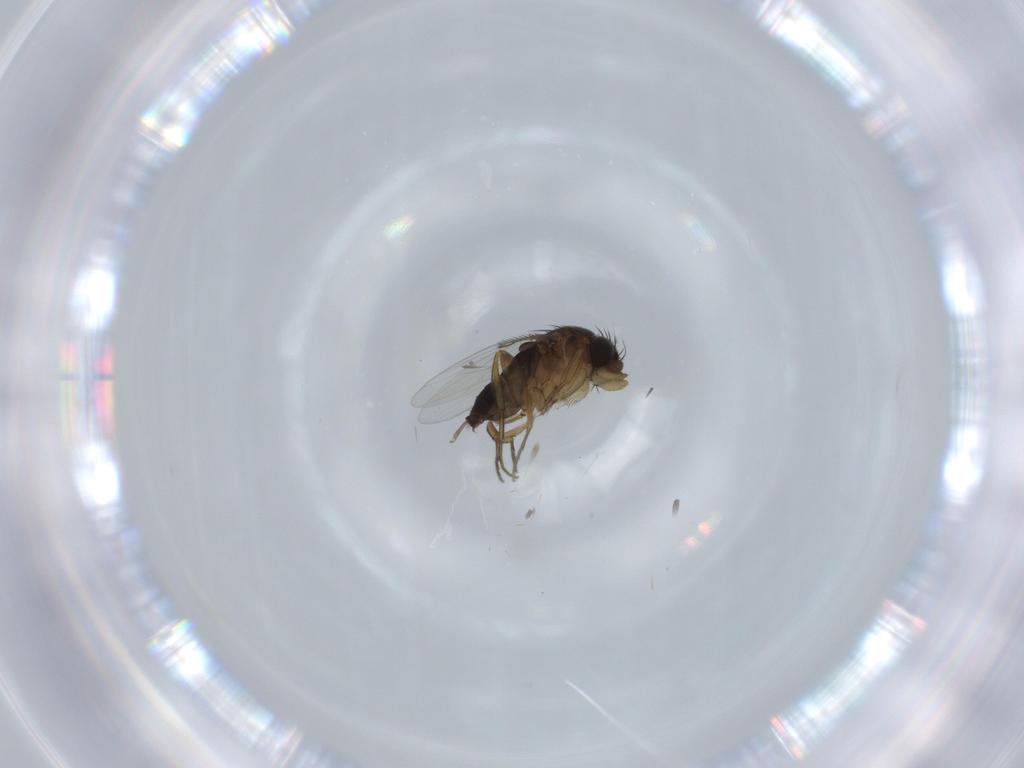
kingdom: Animalia
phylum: Arthropoda
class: Insecta
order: Diptera
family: Phoridae
